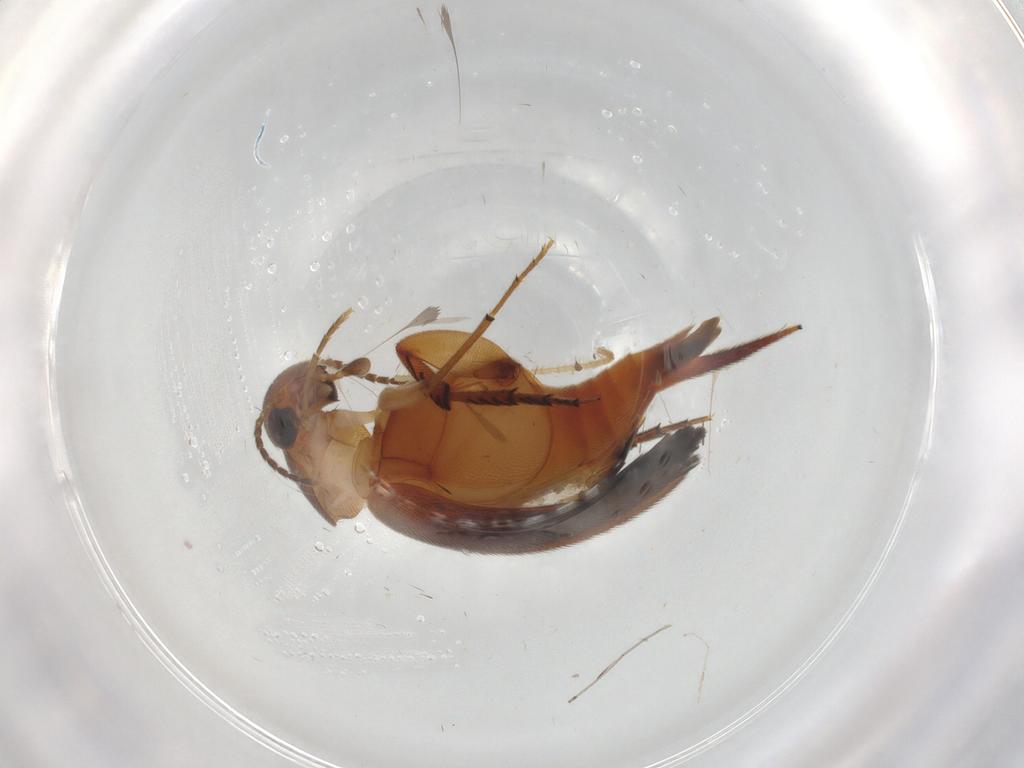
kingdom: Animalia
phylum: Arthropoda
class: Insecta
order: Coleoptera
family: Mordellidae
